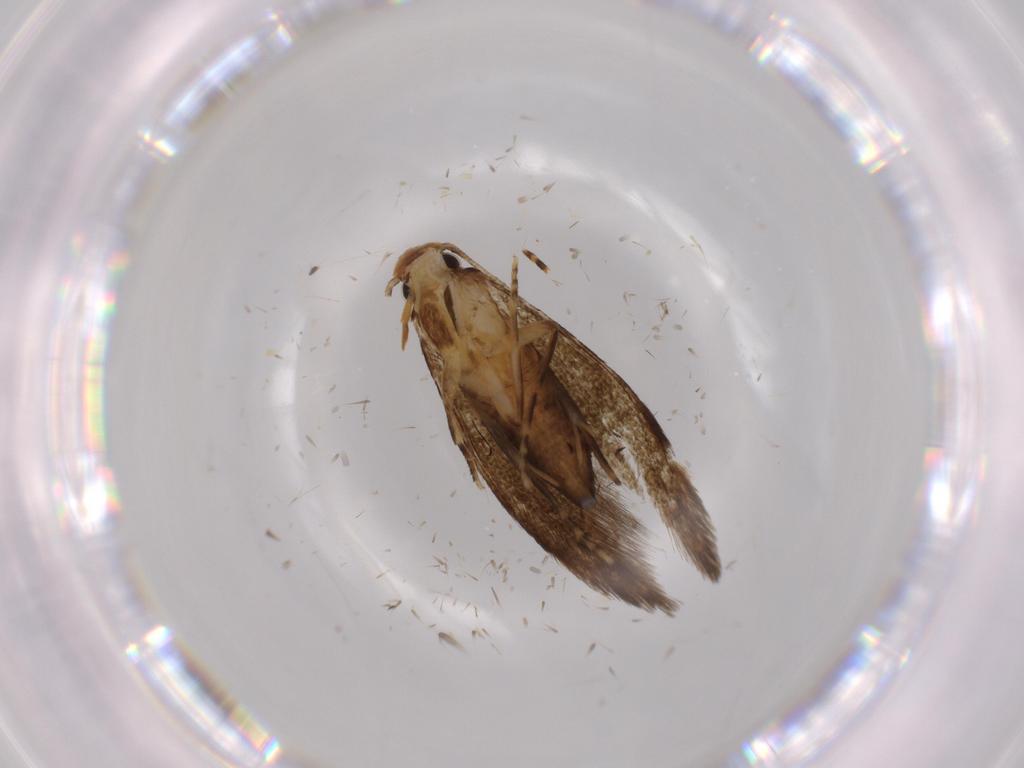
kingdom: Animalia
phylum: Arthropoda
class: Insecta
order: Lepidoptera
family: Tineidae
